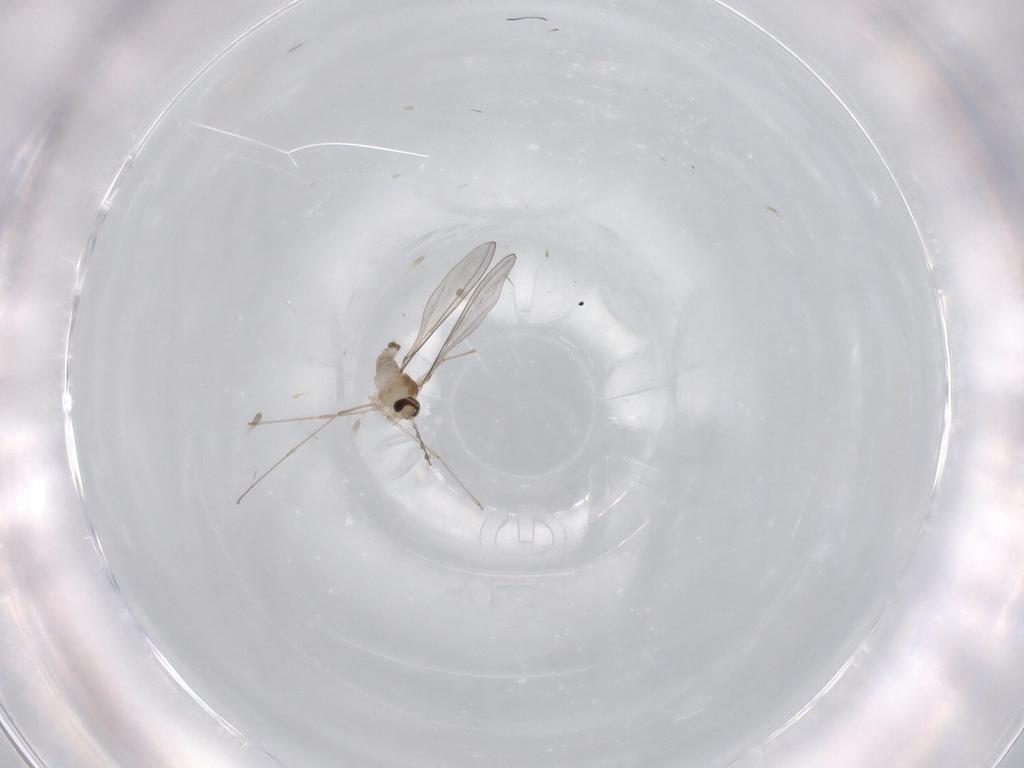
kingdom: Animalia
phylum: Arthropoda
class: Insecta
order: Diptera
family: Cecidomyiidae
